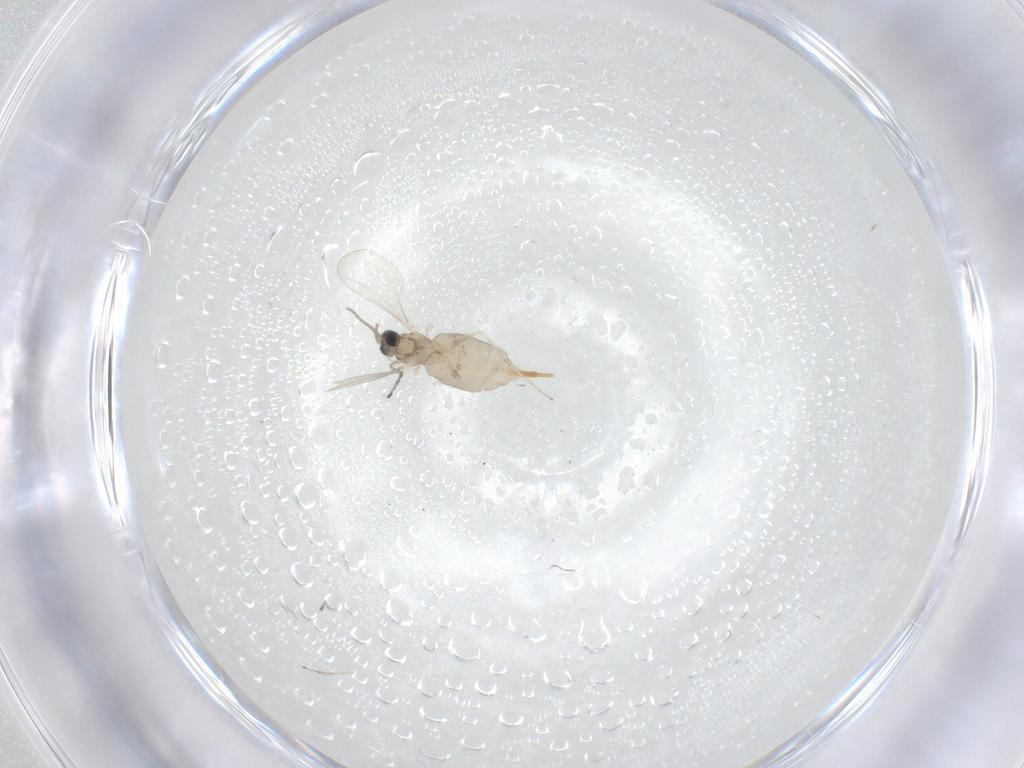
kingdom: Animalia
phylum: Arthropoda
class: Insecta
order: Diptera
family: Cecidomyiidae
